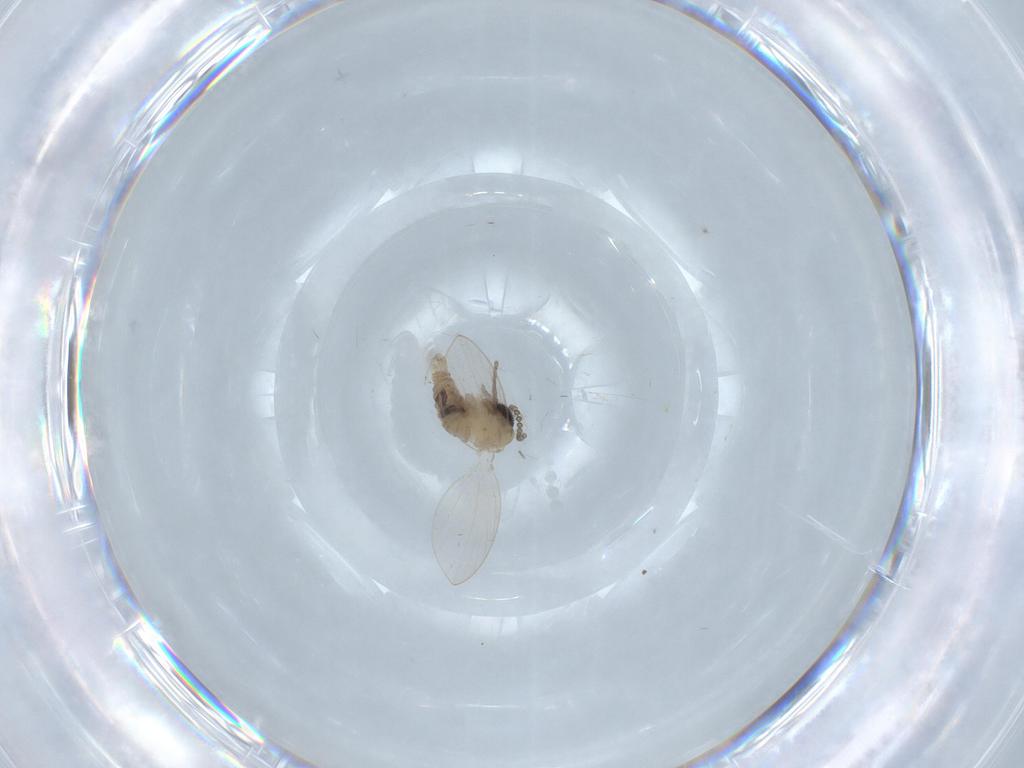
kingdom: Animalia
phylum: Arthropoda
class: Insecta
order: Diptera
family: Psychodidae
